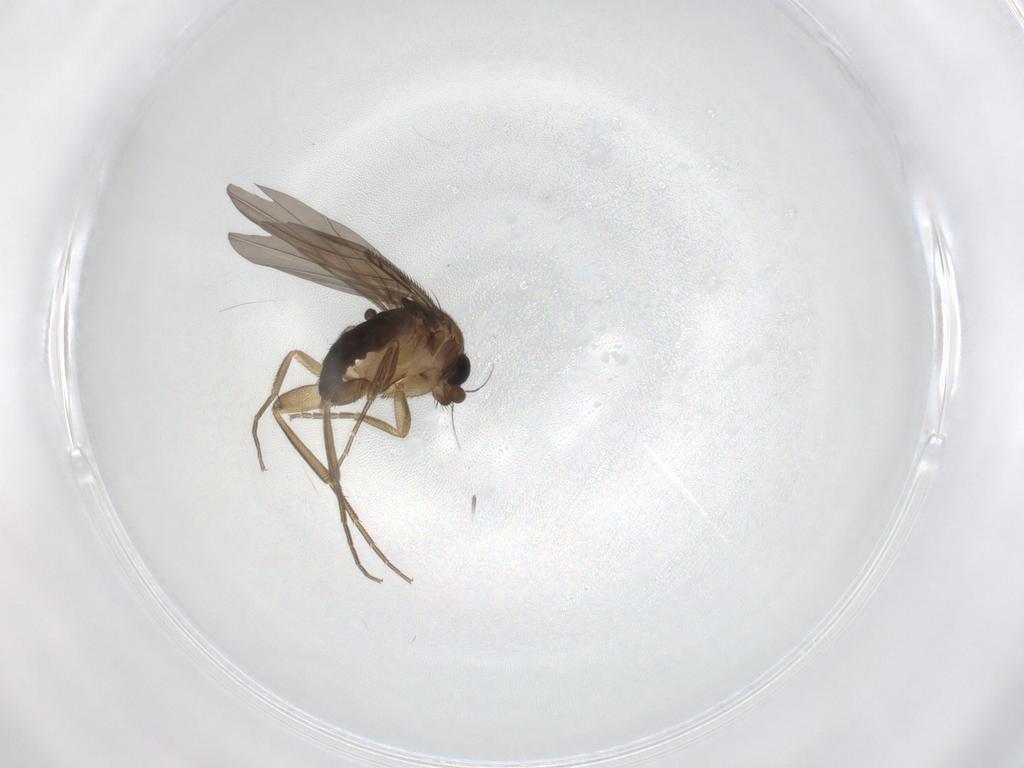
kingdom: Animalia
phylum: Arthropoda
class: Insecta
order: Diptera
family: Phoridae
